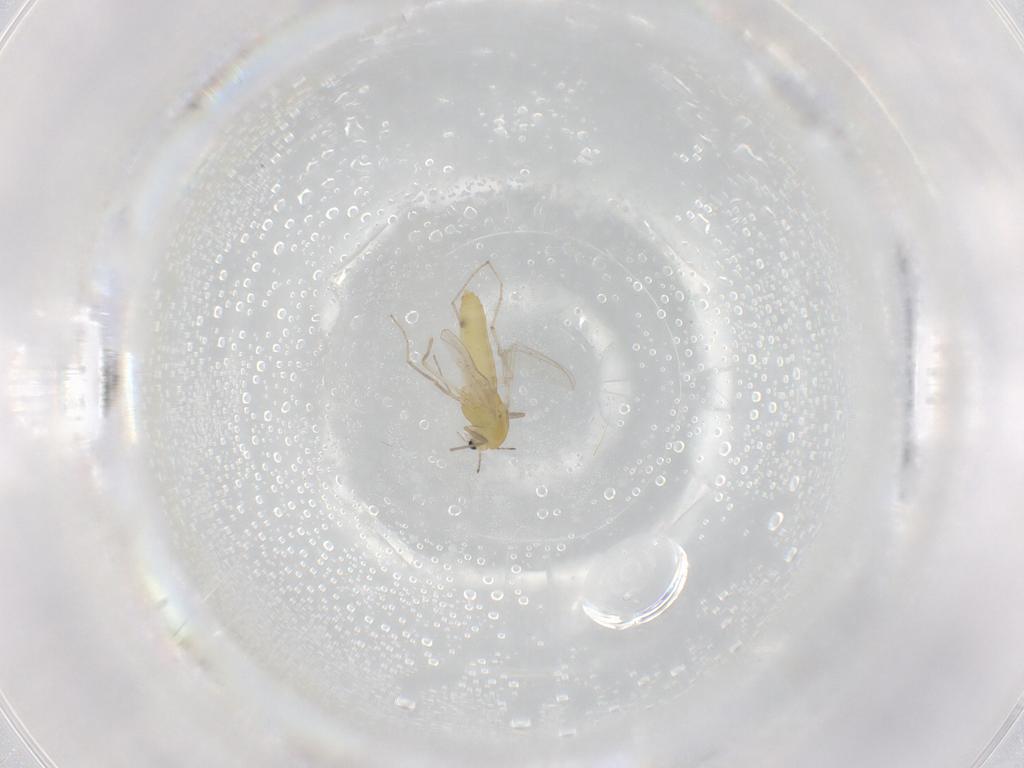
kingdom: Animalia
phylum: Arthropoda
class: Insecta
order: Diptera
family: Chironomidae
